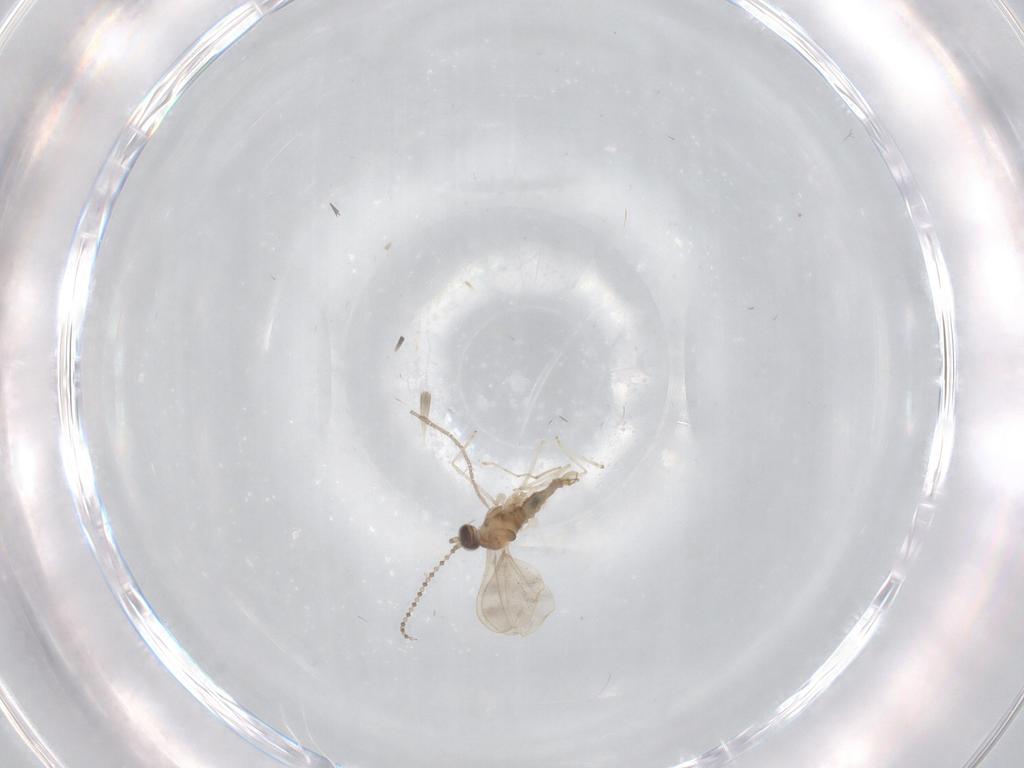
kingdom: Animalia
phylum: Arthropoda
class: Insecta
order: Diptera
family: Sciaridae
